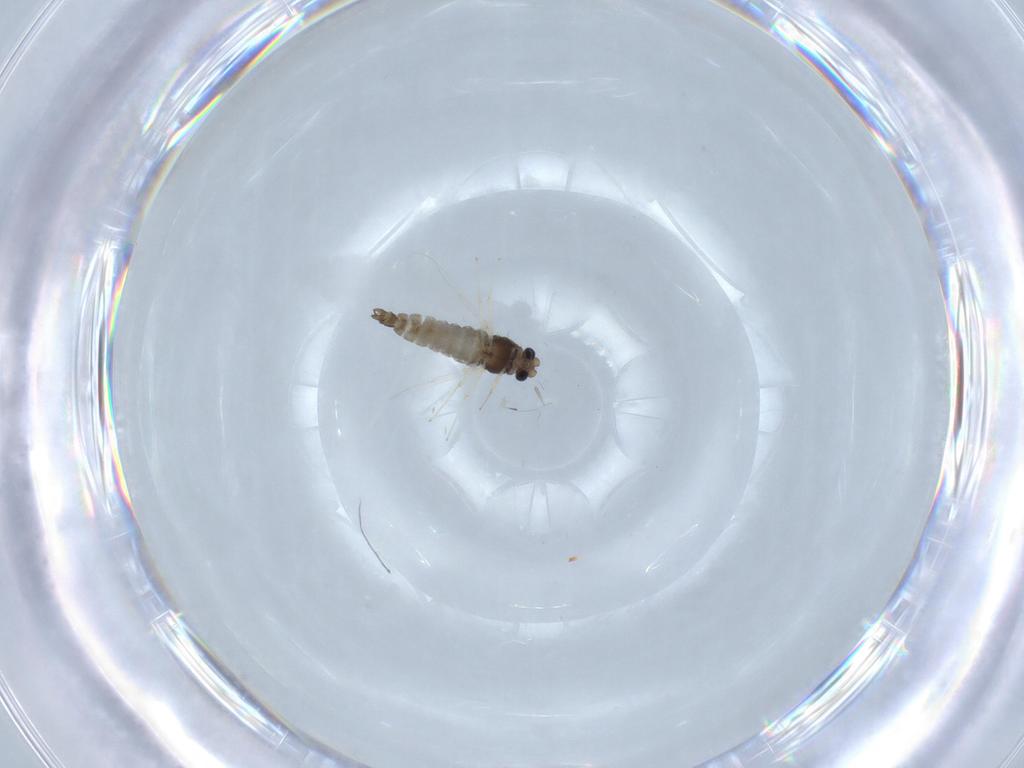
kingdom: Animalia
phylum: Arthropoda
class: Insecta
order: Diptera
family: Chironomidae
